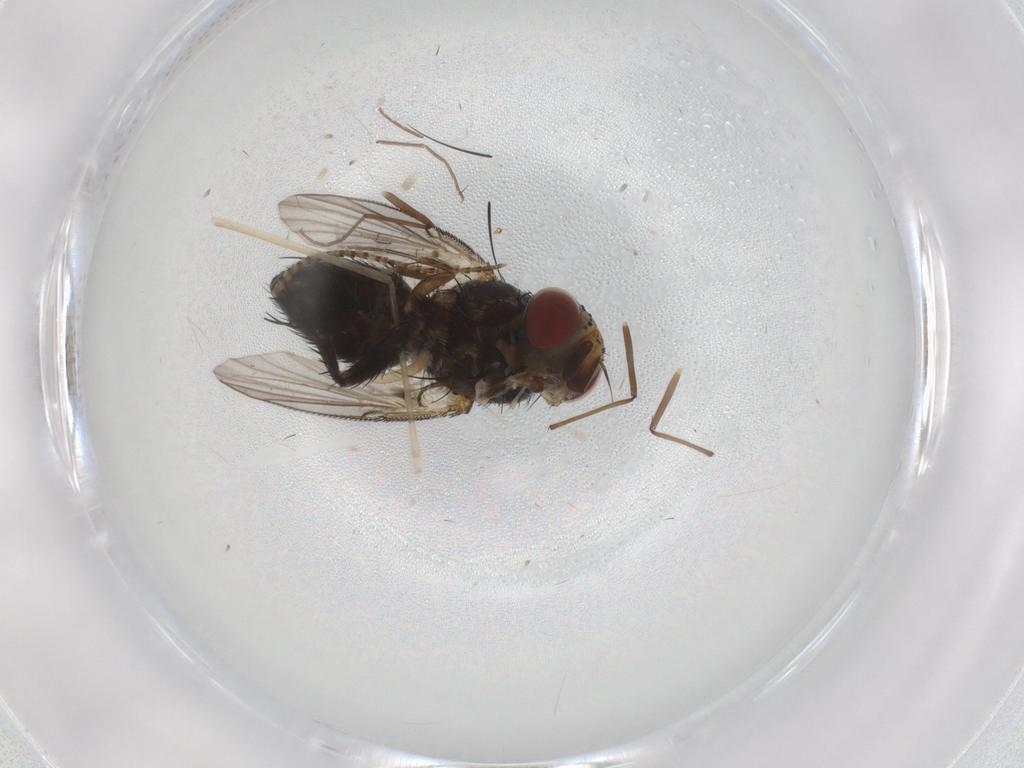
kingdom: Animalia
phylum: Arthropoda
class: Insecta
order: Diptera
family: Tachinidae
